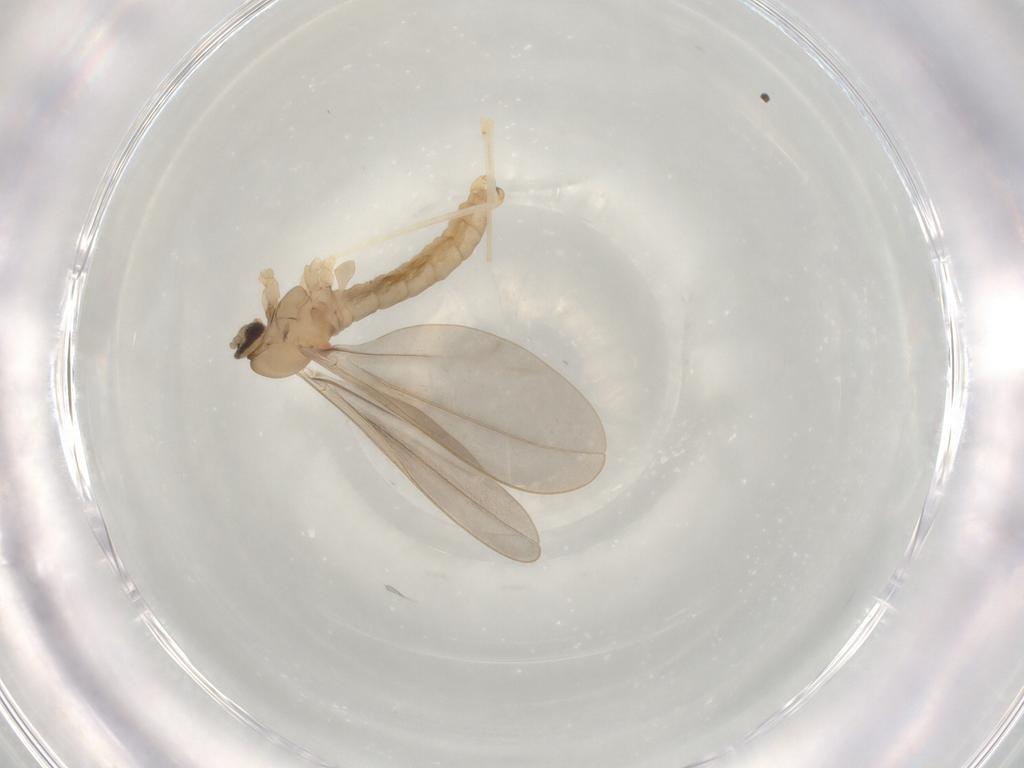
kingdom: Animalia
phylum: Arthropoda
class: Insecta
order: Diptera
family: Cecidomyiidae
